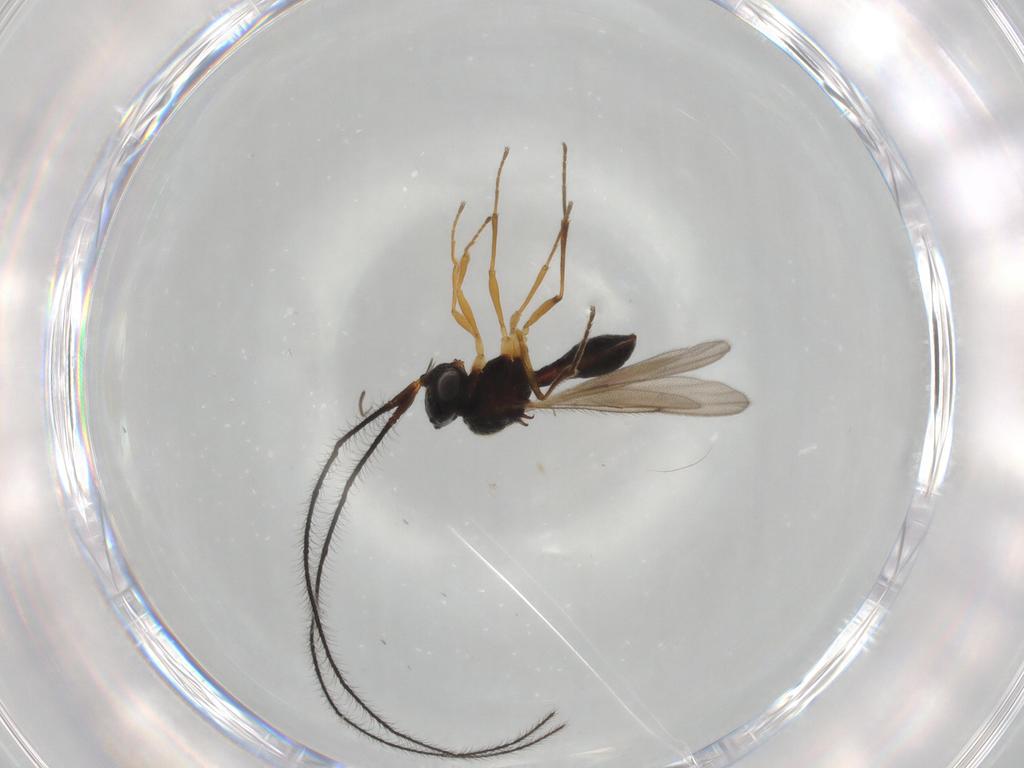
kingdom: Animalia
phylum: Arthropoda
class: Insecta
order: Hymenoptera
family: Scelionidae
